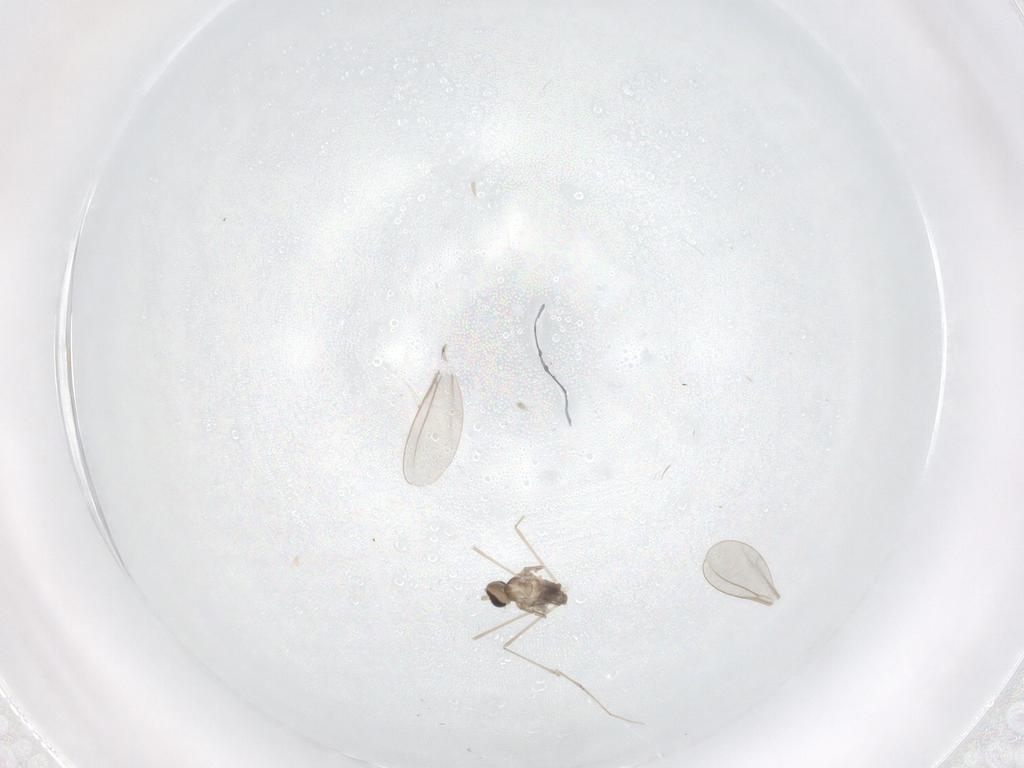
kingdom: Animalia
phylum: Arthropoda
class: Insecta
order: Diptera
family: Cecidomyiidae
